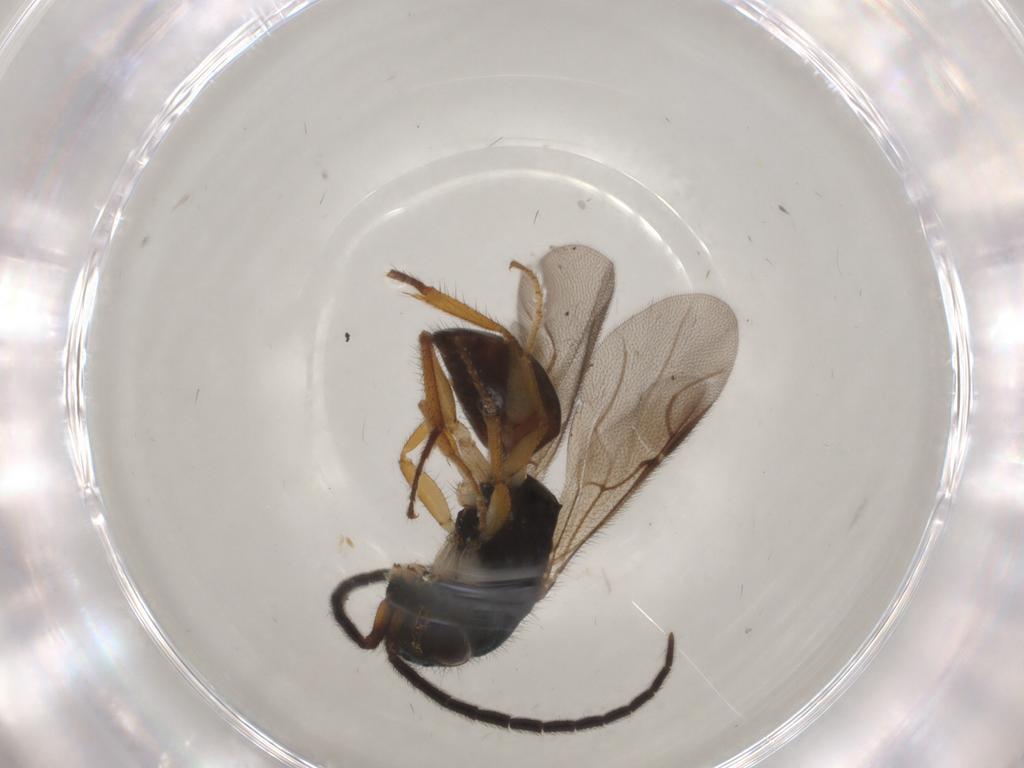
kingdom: Animalia
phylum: Arthropoda
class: Insecta
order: Hymenoptera
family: Chrysididae
